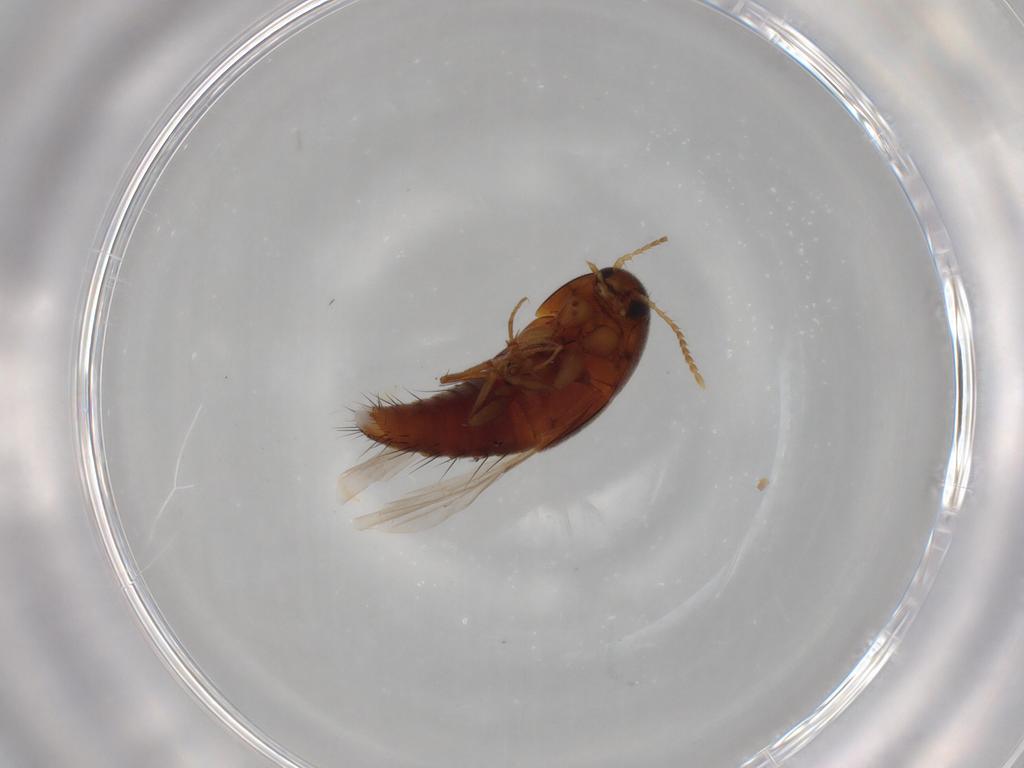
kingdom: Animalia
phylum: Arthropoda
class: Insecta
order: Coleoptera
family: Staphylinidae
